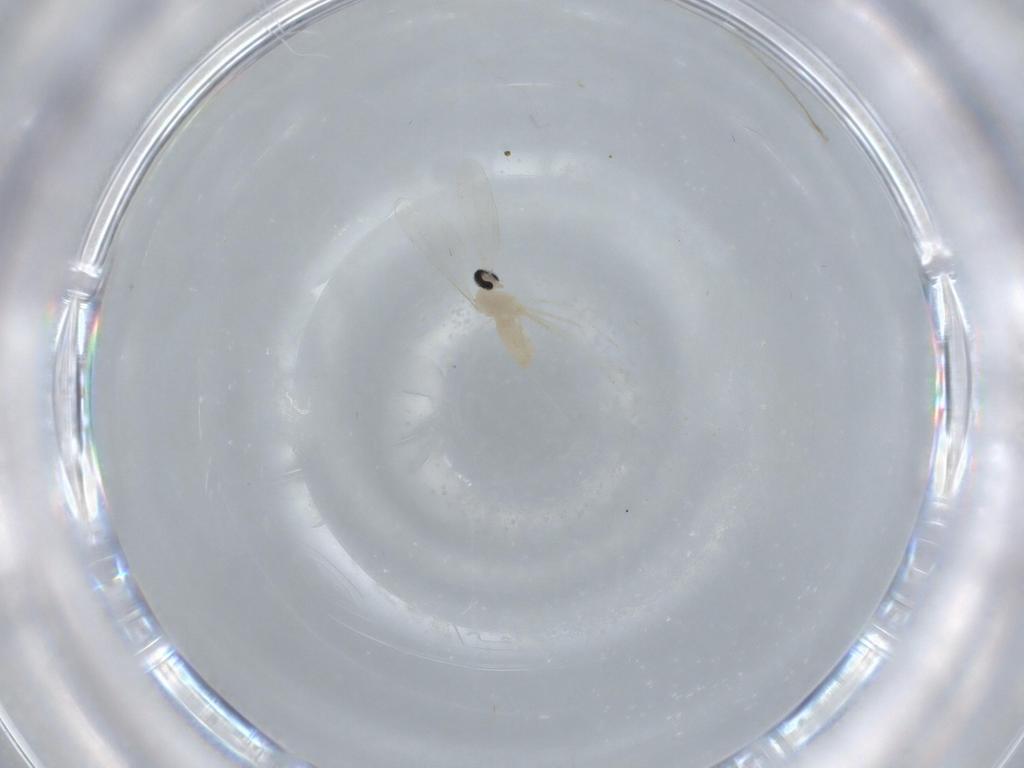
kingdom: Animalia
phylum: Arthropoda
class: Insecta
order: Diptera
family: Cecidomyiidae
